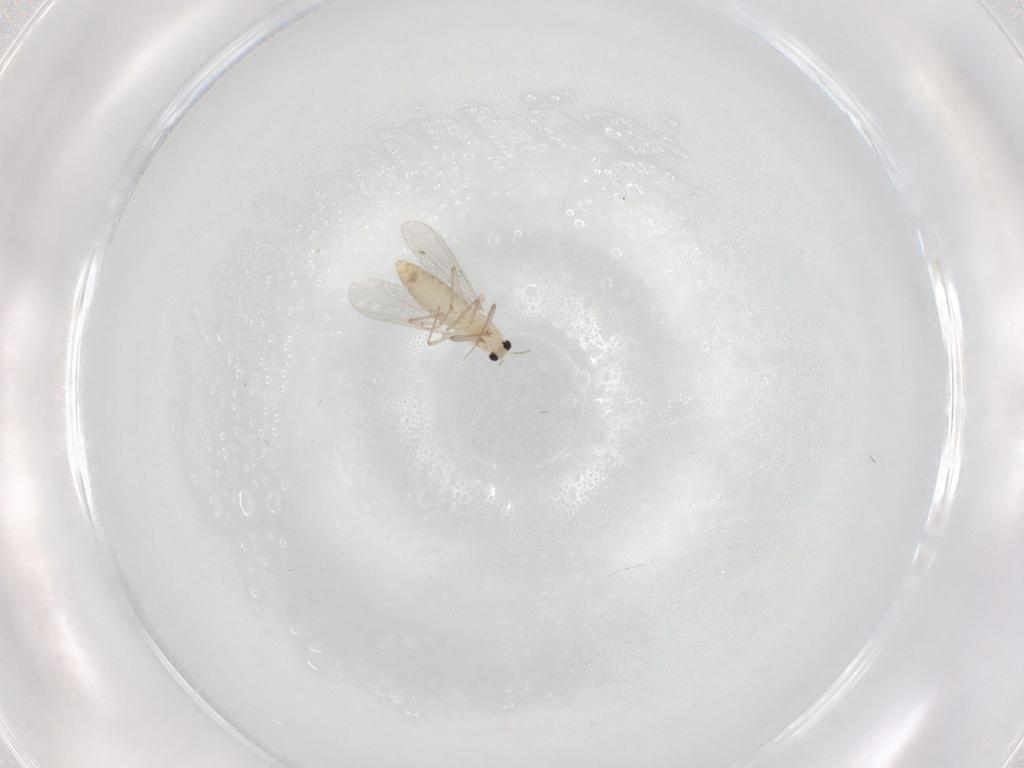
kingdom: Animalia
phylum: Arthropoda
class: Insecta
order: Diptera
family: Chironomidae
